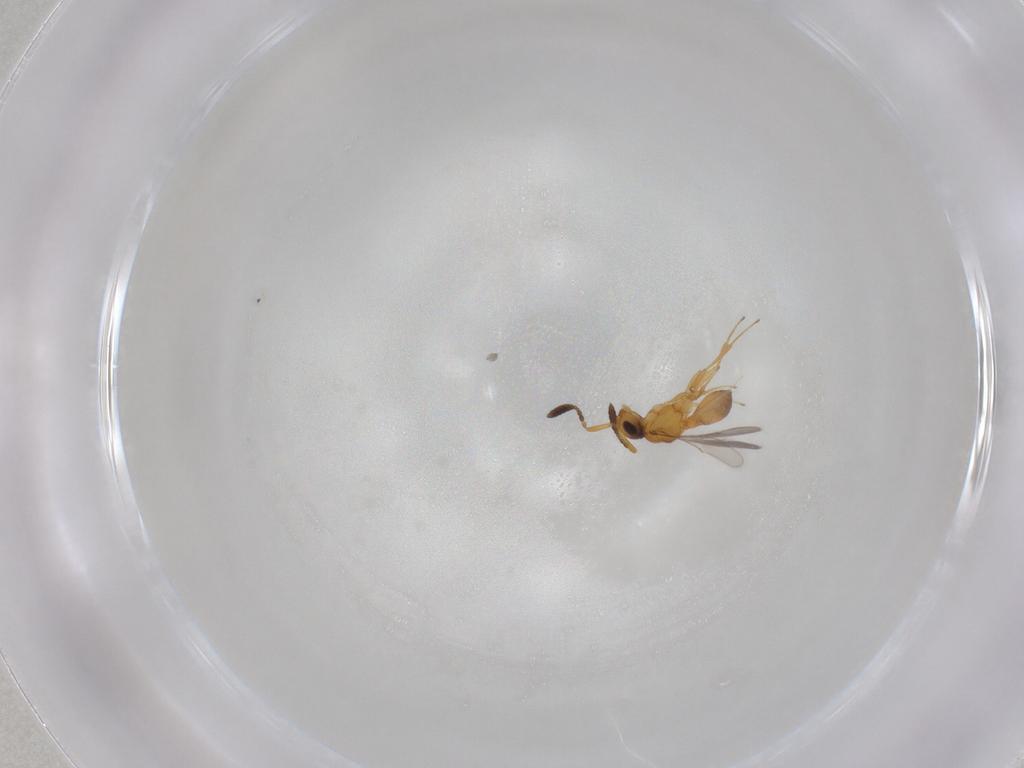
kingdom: Animalia
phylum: Arthropoda
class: Insecta
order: Hymenoptera
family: Scelionidae
